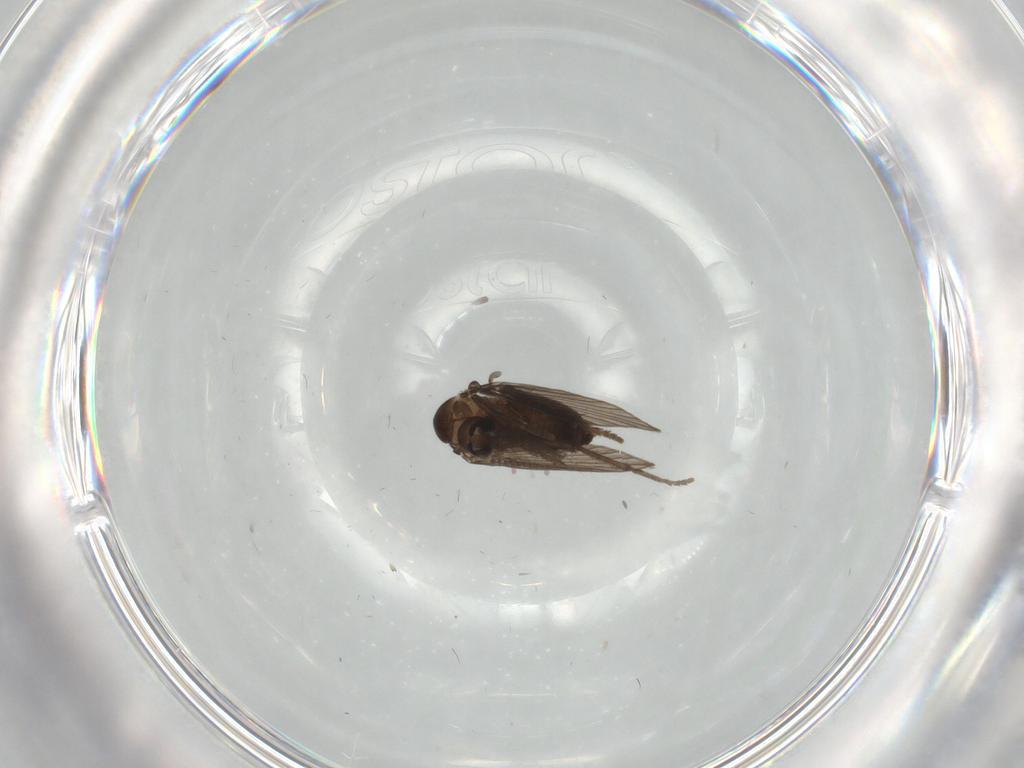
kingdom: Animalia
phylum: Arthropoda
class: Insecta
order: Diptera
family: Psychodidae
